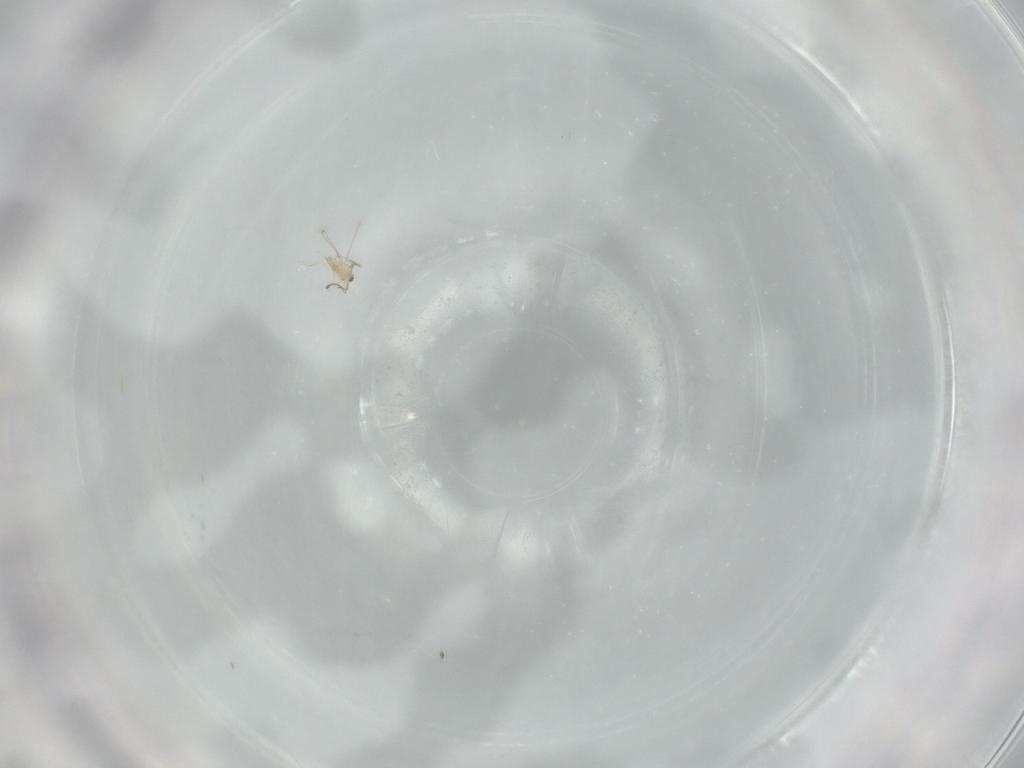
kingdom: Animalia
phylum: Arthropoda
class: Insecta
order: Hymenoptera
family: Mymaridae
